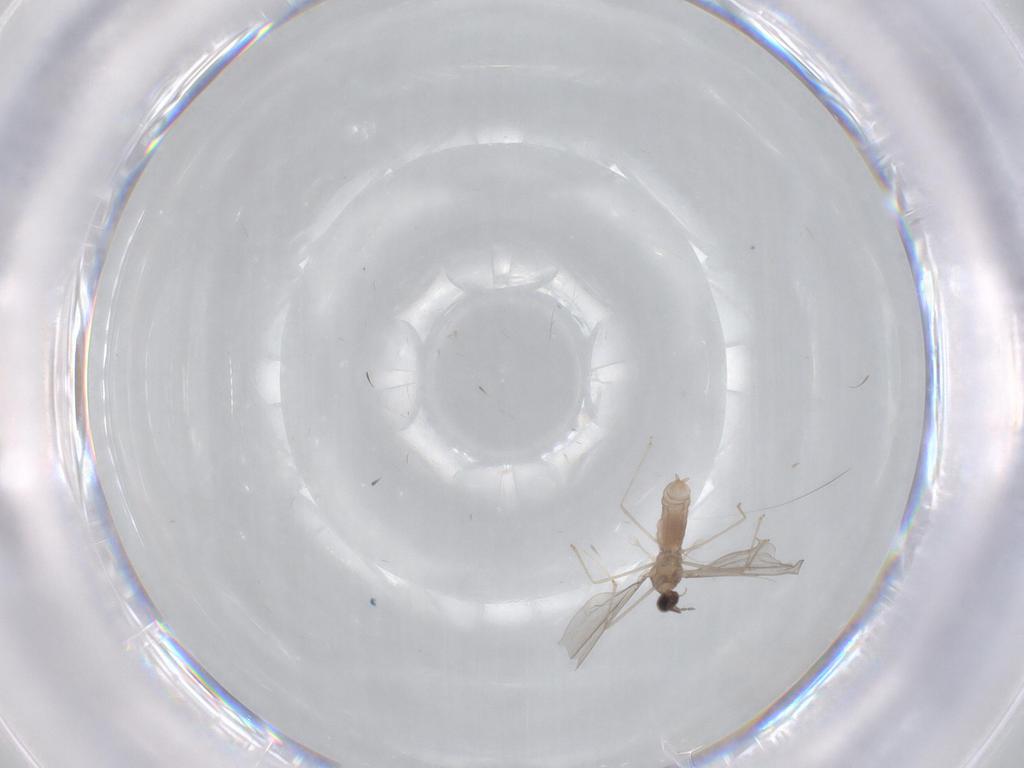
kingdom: Animalia
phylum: Arthropoda
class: Insecta
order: Diptera
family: Cecidomyiidae
